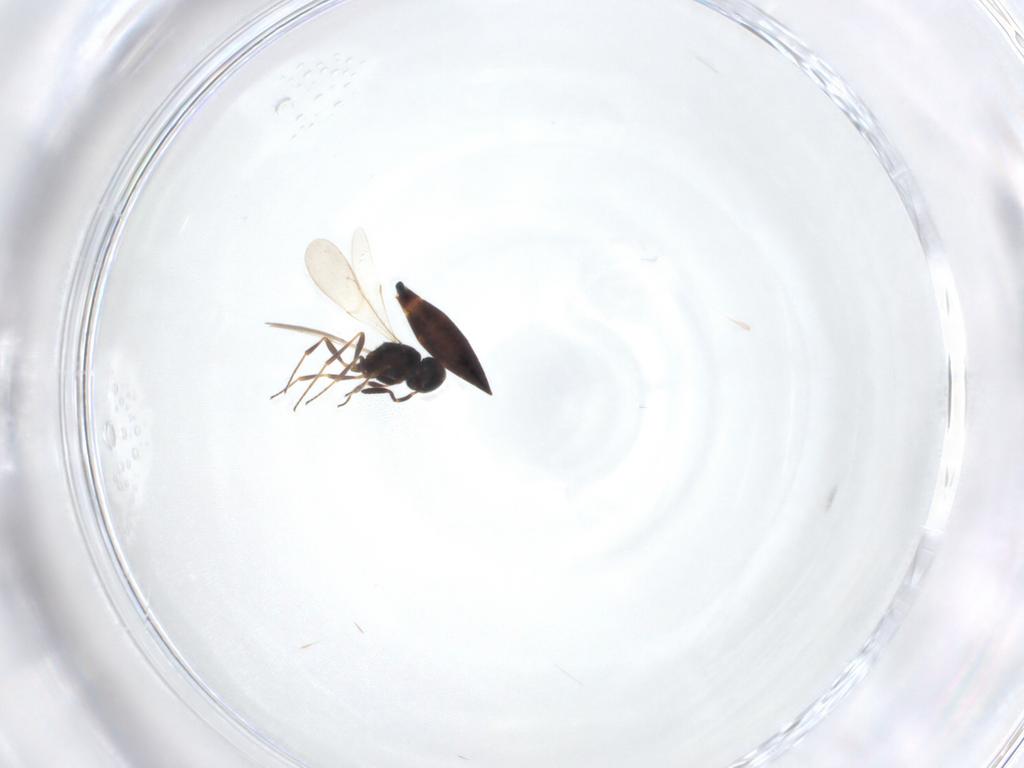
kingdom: Animalia
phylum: Arthropoda
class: Insecta
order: Hymenoptera
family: Scelionidae
